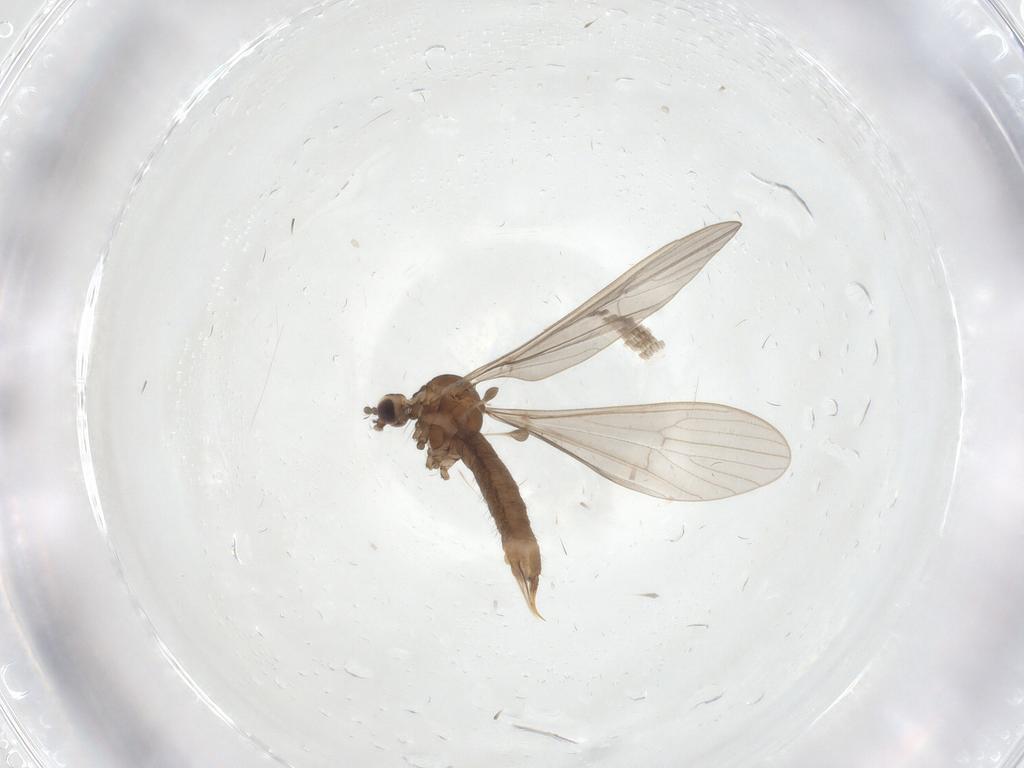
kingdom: Animalia
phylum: Arthropoda
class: Insecta
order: Diptera
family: Limoniidae
